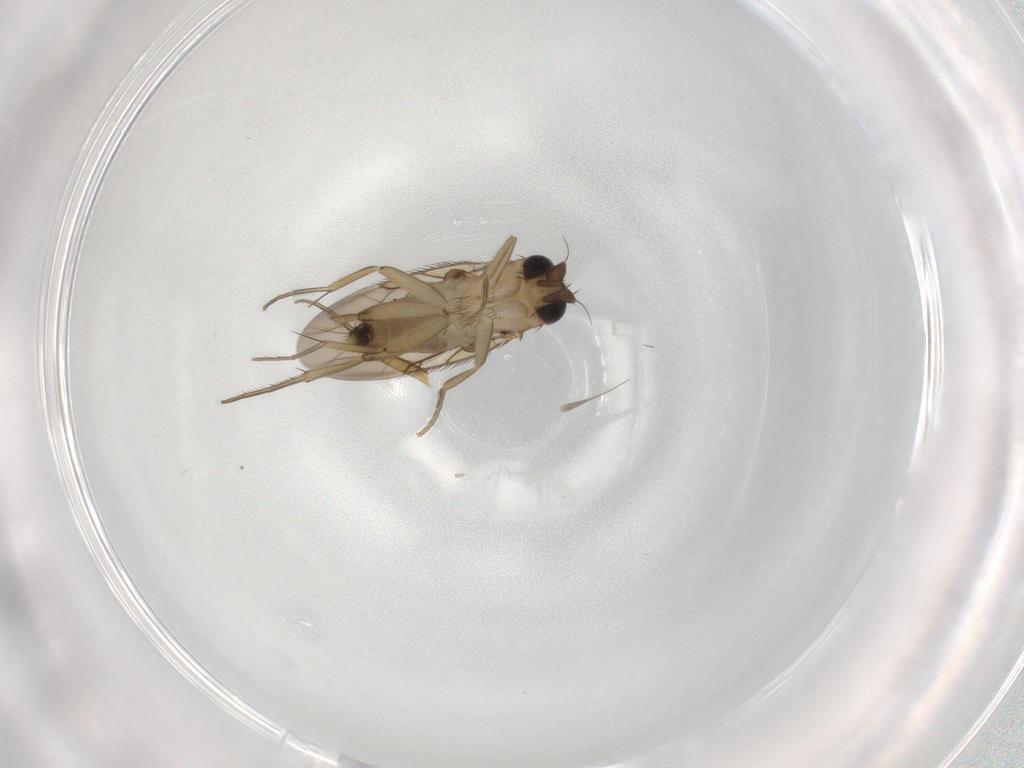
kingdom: Animalia
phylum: Arthropoda
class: Insecta
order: Diptera
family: Phoridae
